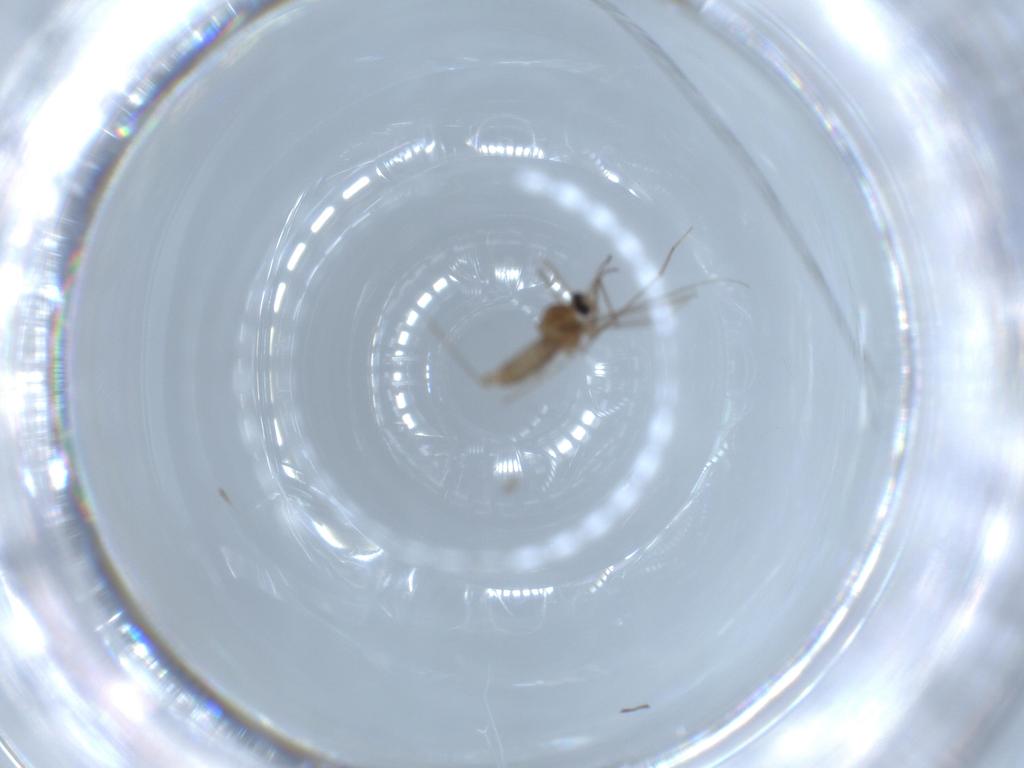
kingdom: Animalia
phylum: Arthropoda
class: Insecta
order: Diptera
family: Cecidomyiidae
